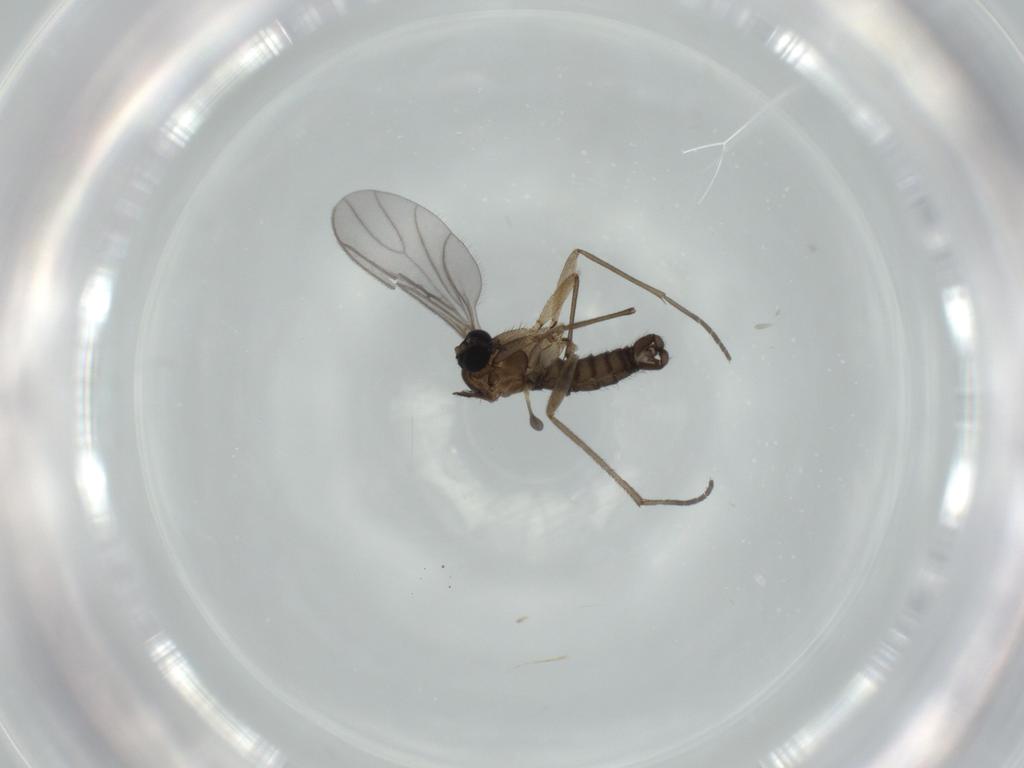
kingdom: Animalia
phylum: Arthropoda
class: Insecta
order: Diptera
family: Sciaridae
